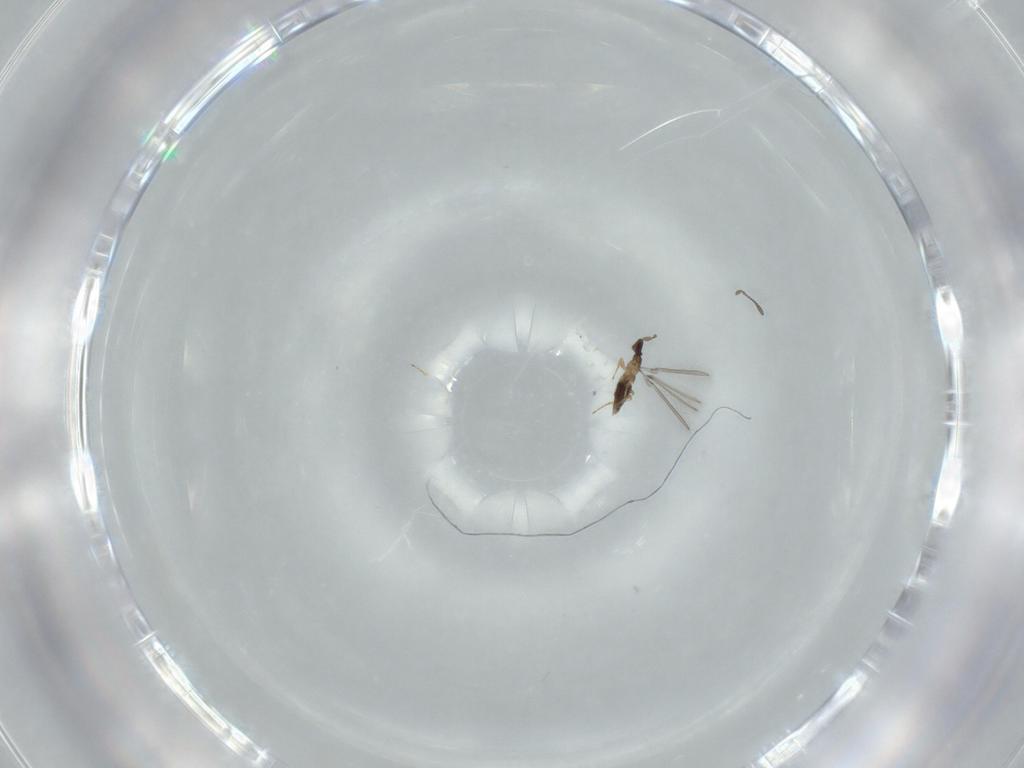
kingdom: Animalia
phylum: Arthropoda
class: Insecta
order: Hymenoptera
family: Mymaridae
